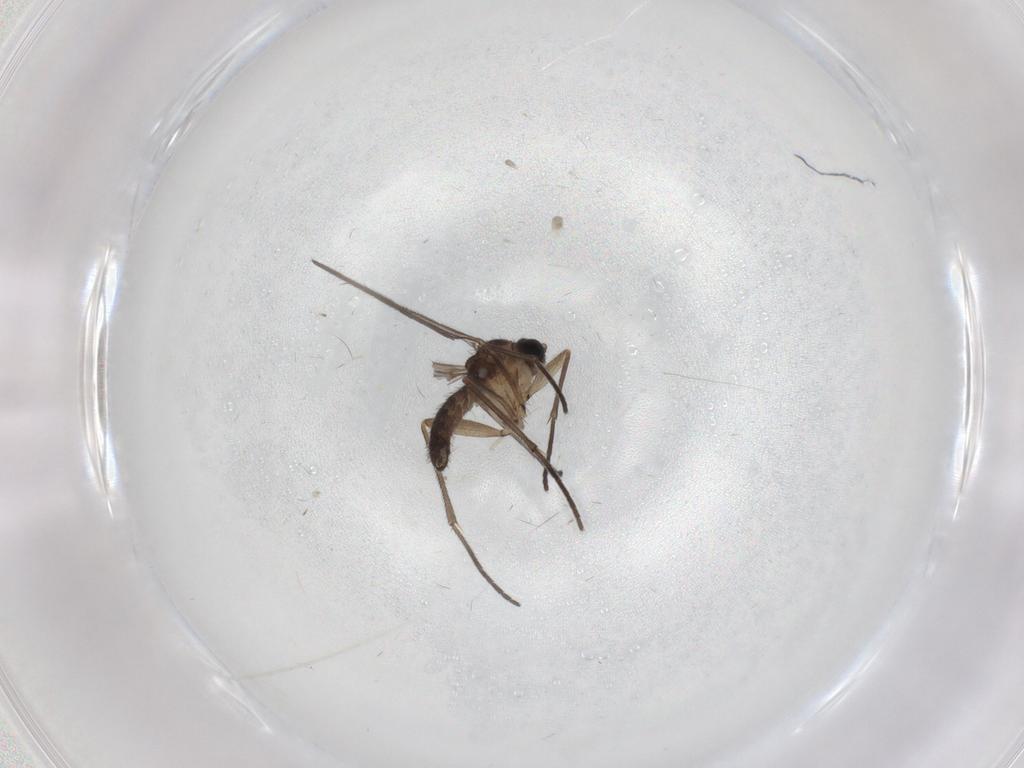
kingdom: Animalia
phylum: Arthropoda
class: Insecta
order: Diptera
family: Sciaridae
